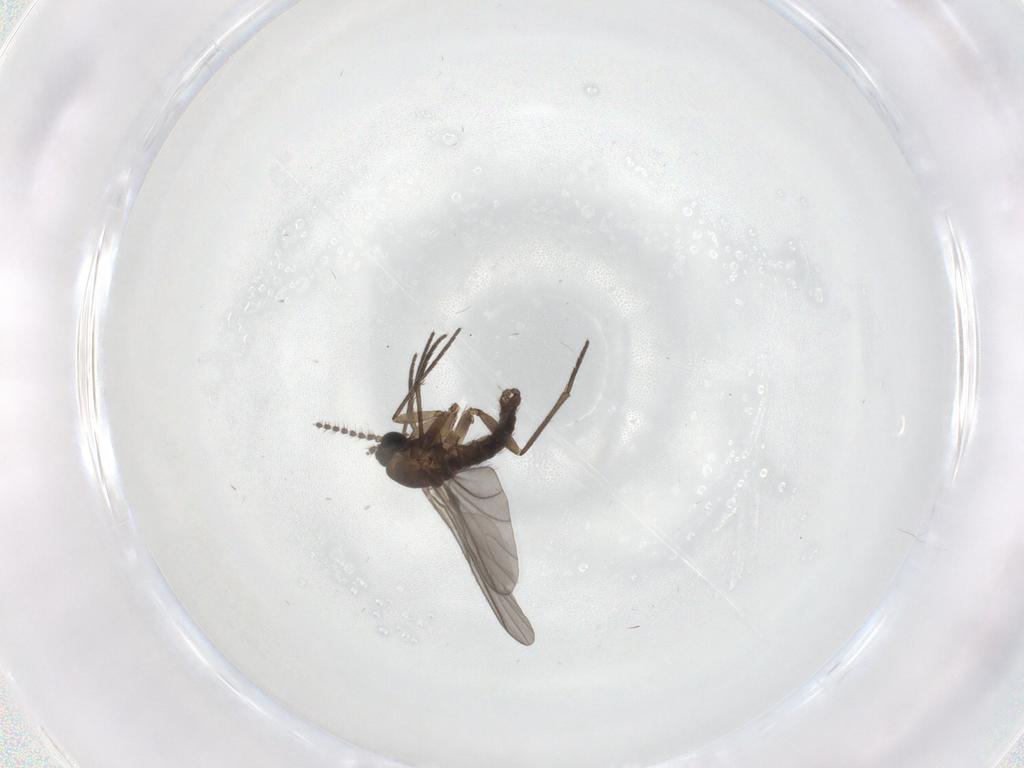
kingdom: Animalia
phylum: Arthropoda
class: Insecta
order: Diptera
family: Sciaridae
